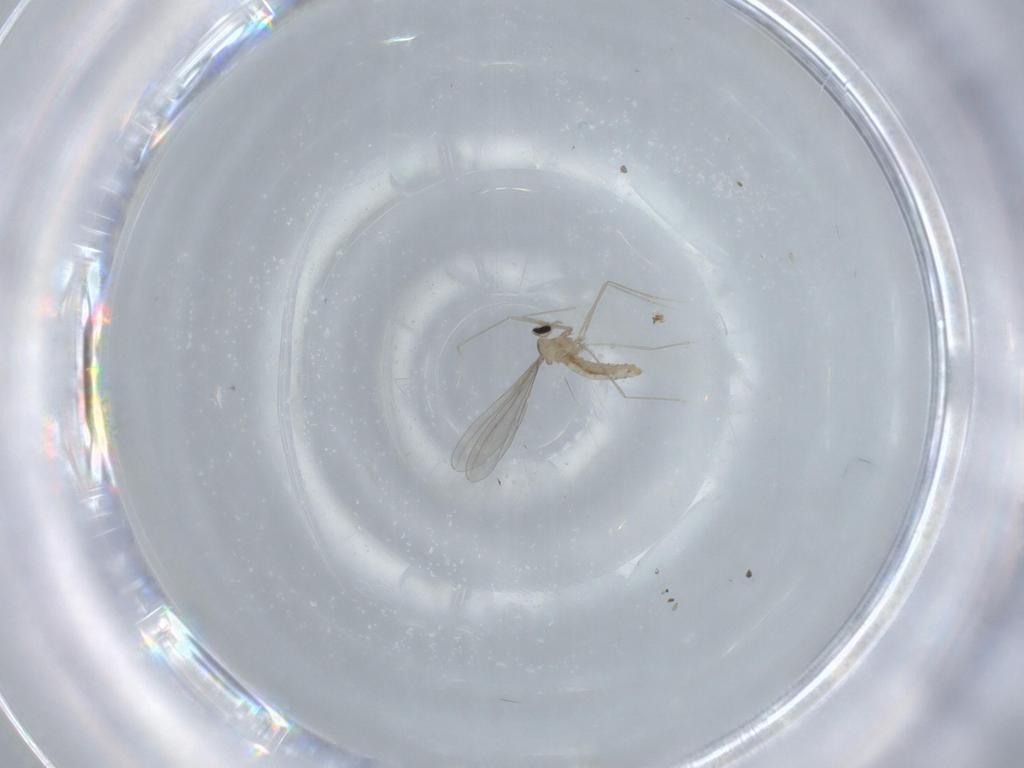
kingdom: Animalia
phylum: Arthropoda
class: Insecta
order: Diptera
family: Cecidomyiidae
